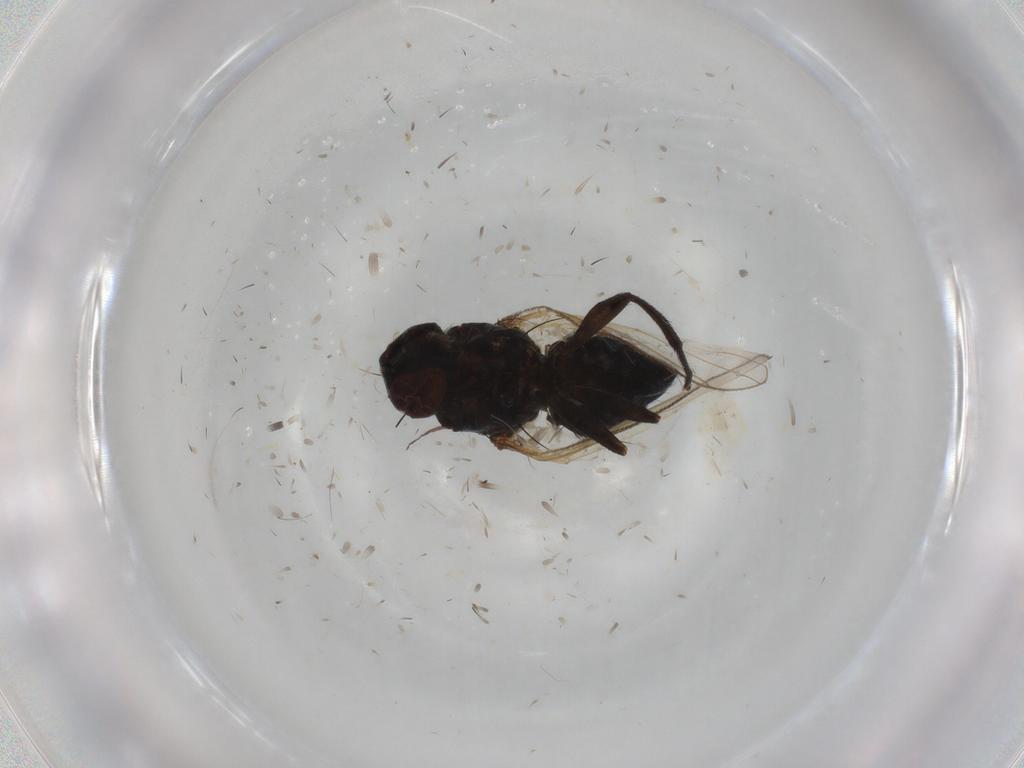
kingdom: Animalia
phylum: Arthropoda
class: Insecta
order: Diptera
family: Muscidae
